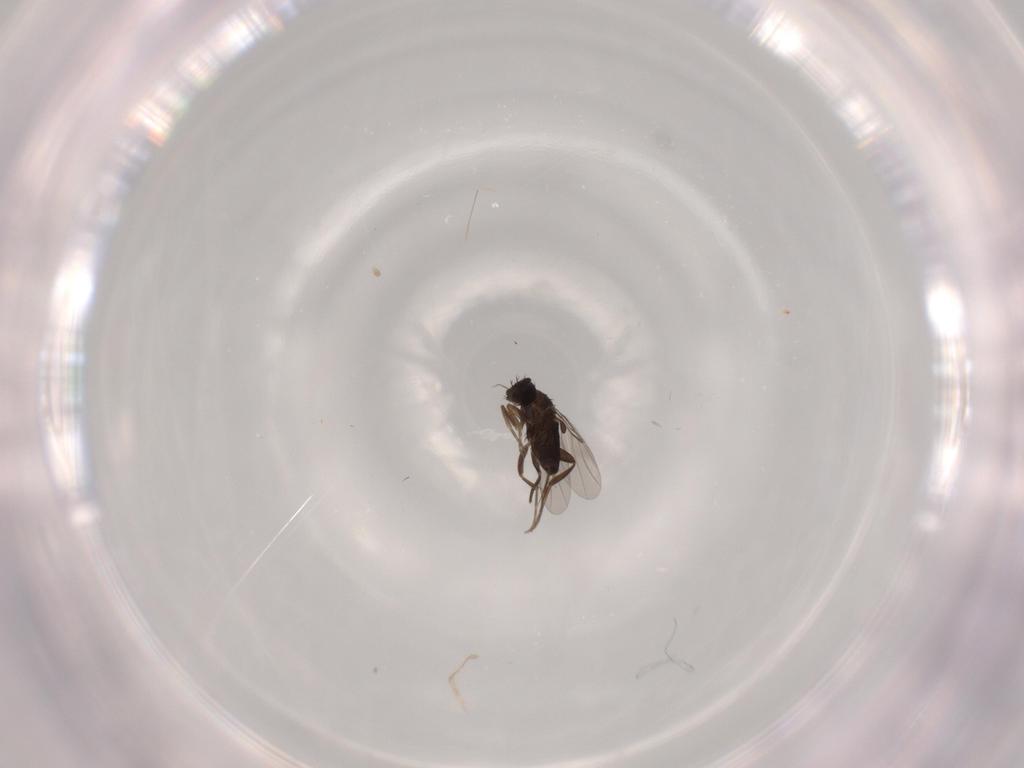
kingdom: Animalia
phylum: Arthropoda
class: Insecta
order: Diptera
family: Phoridae
